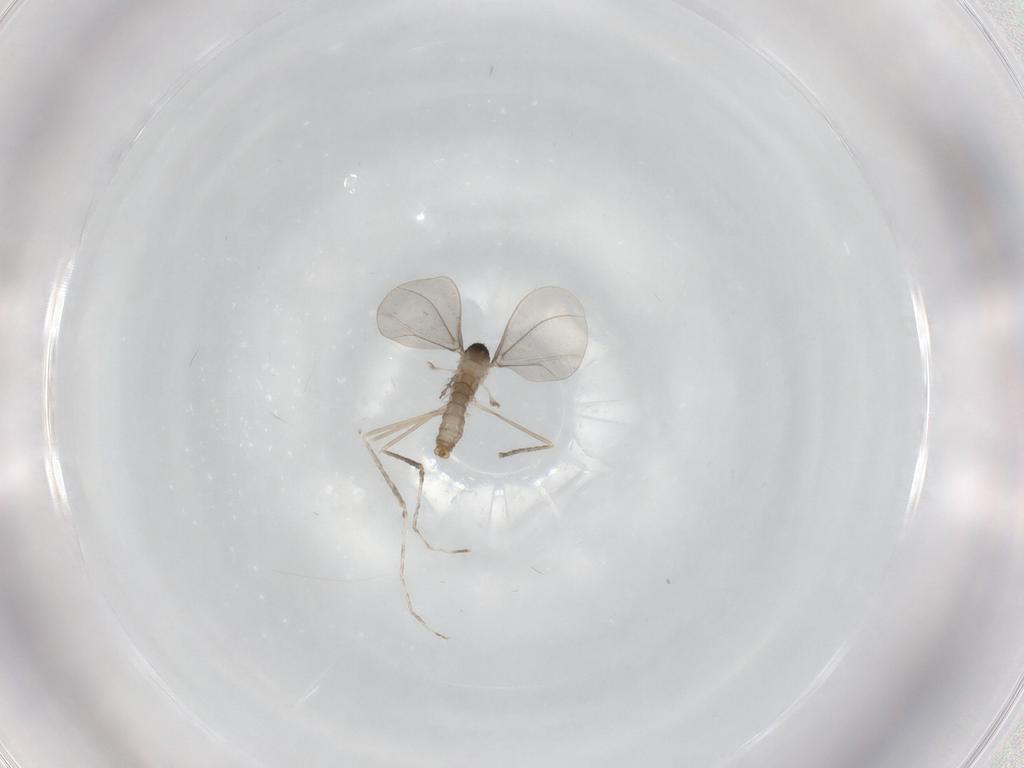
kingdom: Animalia
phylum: Arthropoda
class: Insecta
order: Diptera
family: Cecidomyiidae
